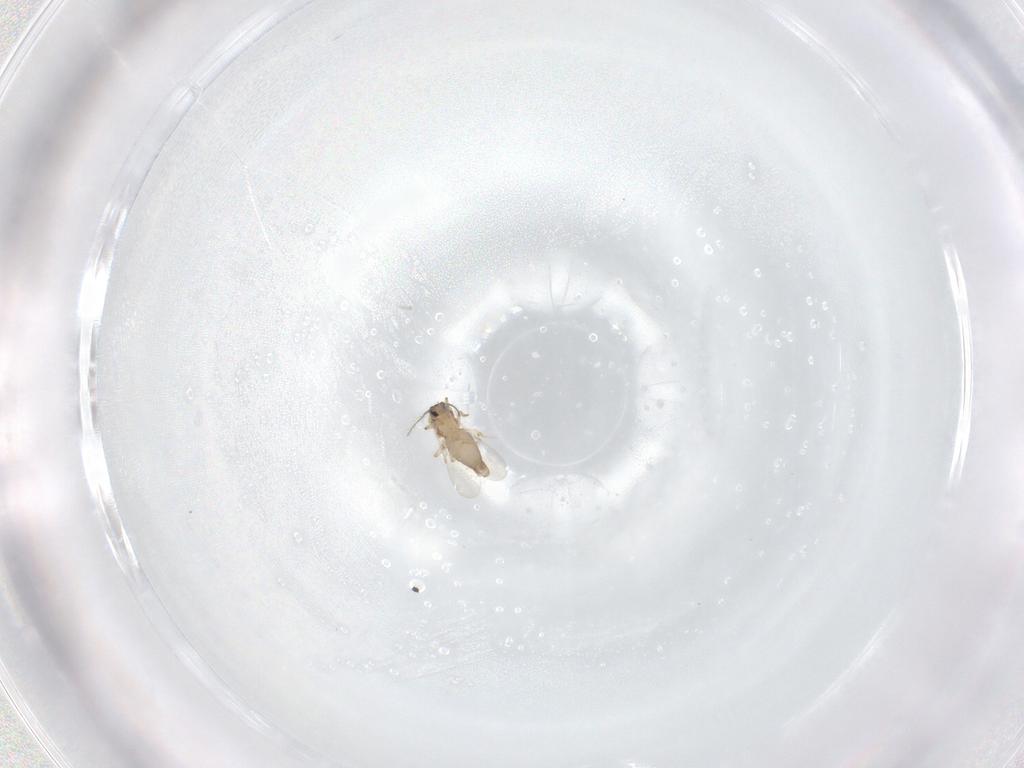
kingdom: Animalia
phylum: Arthropoda
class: Insecta
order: Diptera
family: Ceratopogonidae
